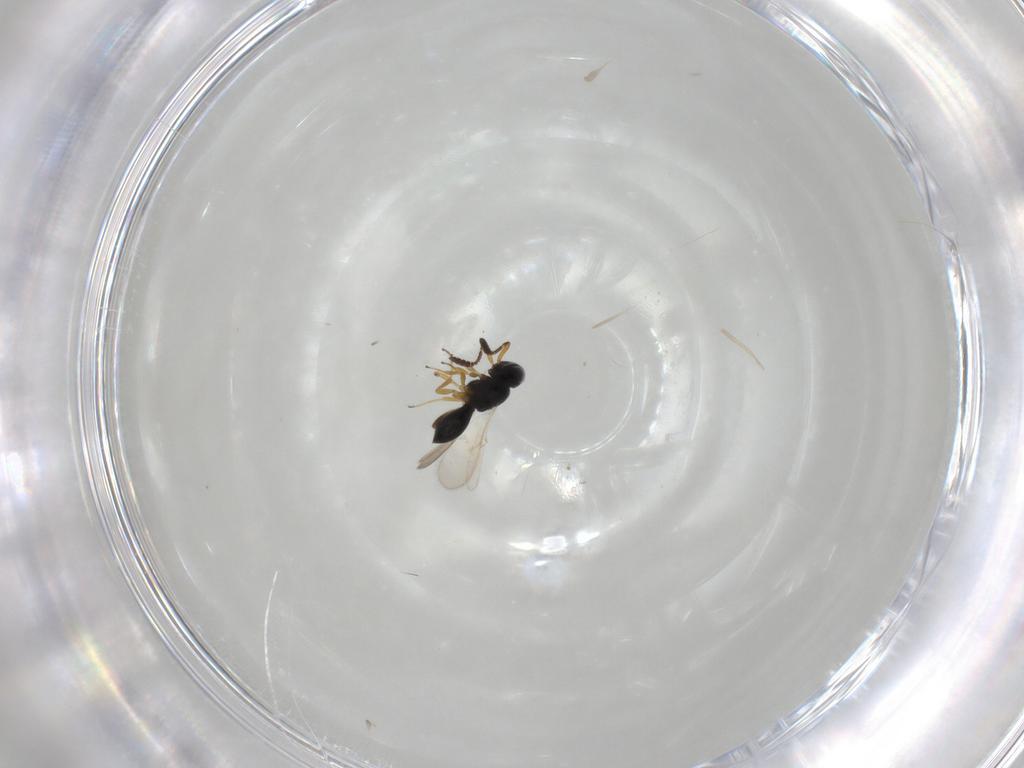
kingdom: Animalia
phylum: Arthropoda
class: Insecta
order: Hymenoptera
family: Scelionidae
